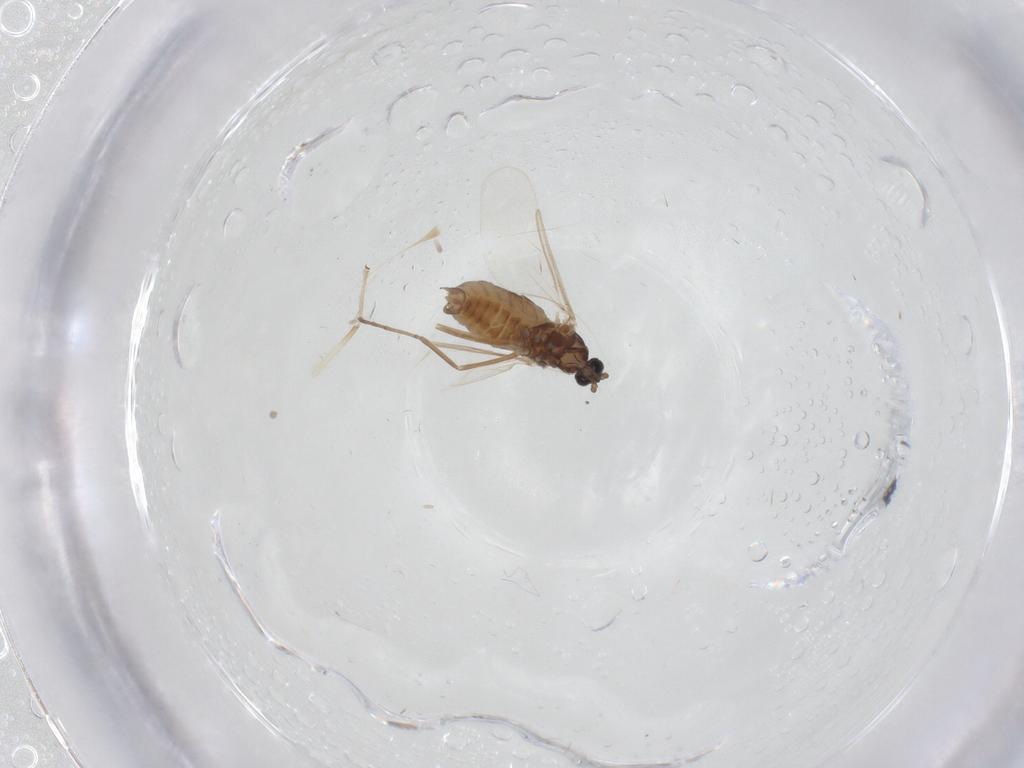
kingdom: Animalia
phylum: Arthropoda
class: Insecta
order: Diptera
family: Cecidomyiidae
